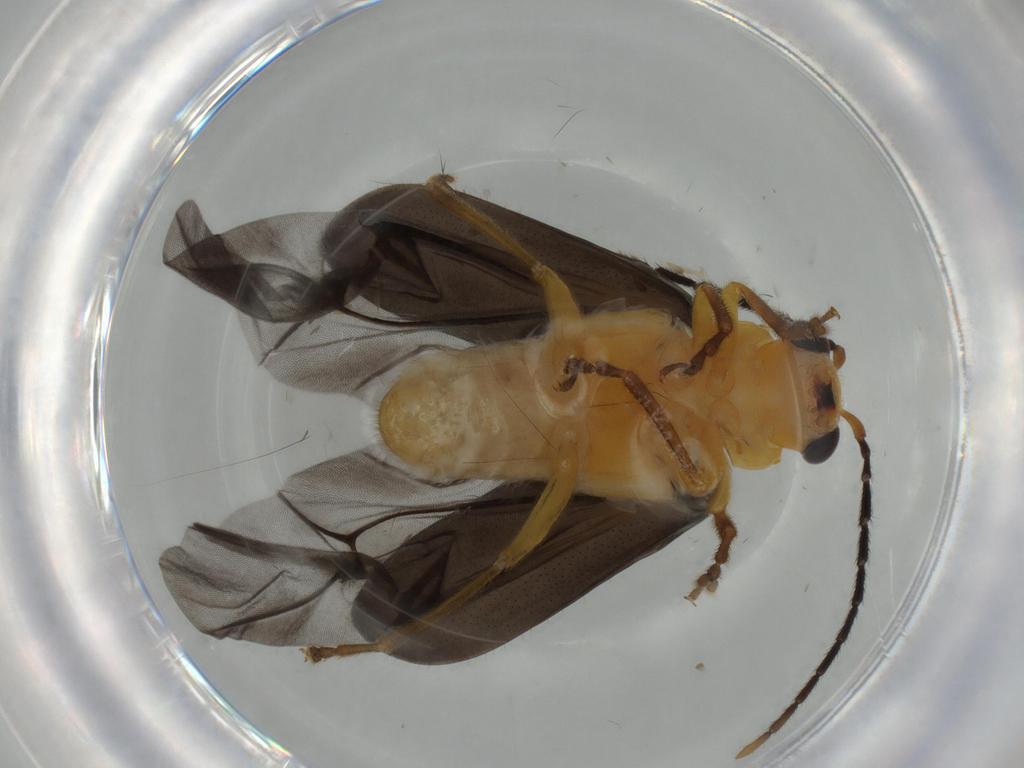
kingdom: Animalia
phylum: Arthropoda
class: Insecta
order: Coleoptera
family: Chrysomelidae
